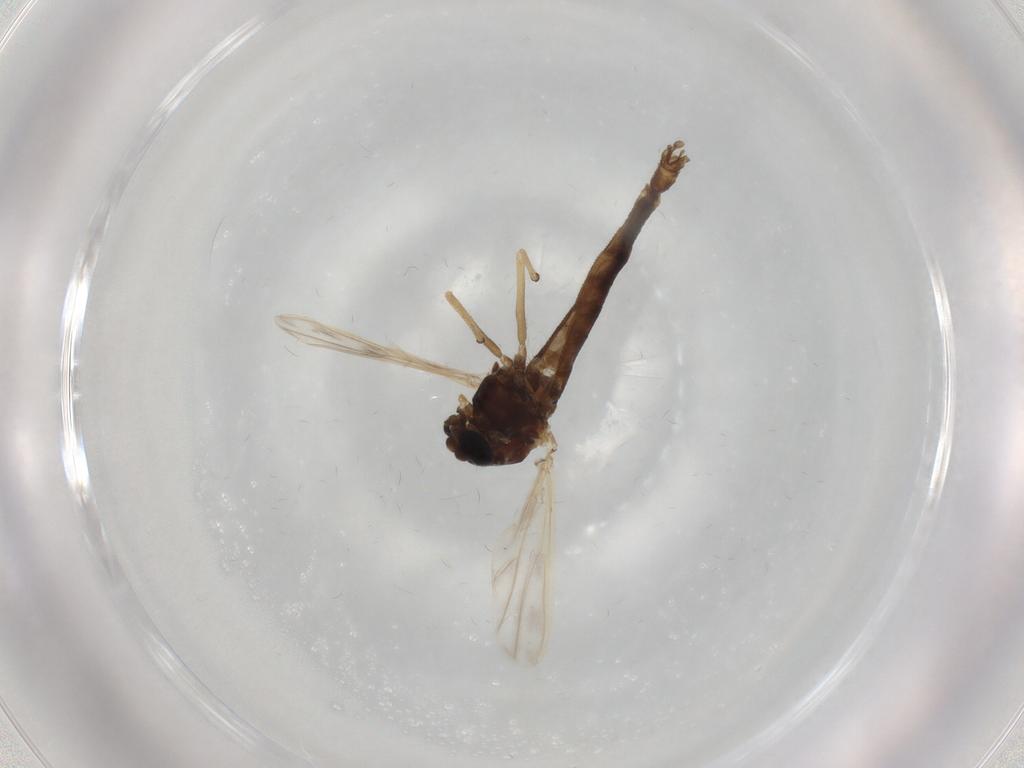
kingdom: Animalia
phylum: Arthropoda
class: Insecta
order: Diptera
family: Chironomidae
